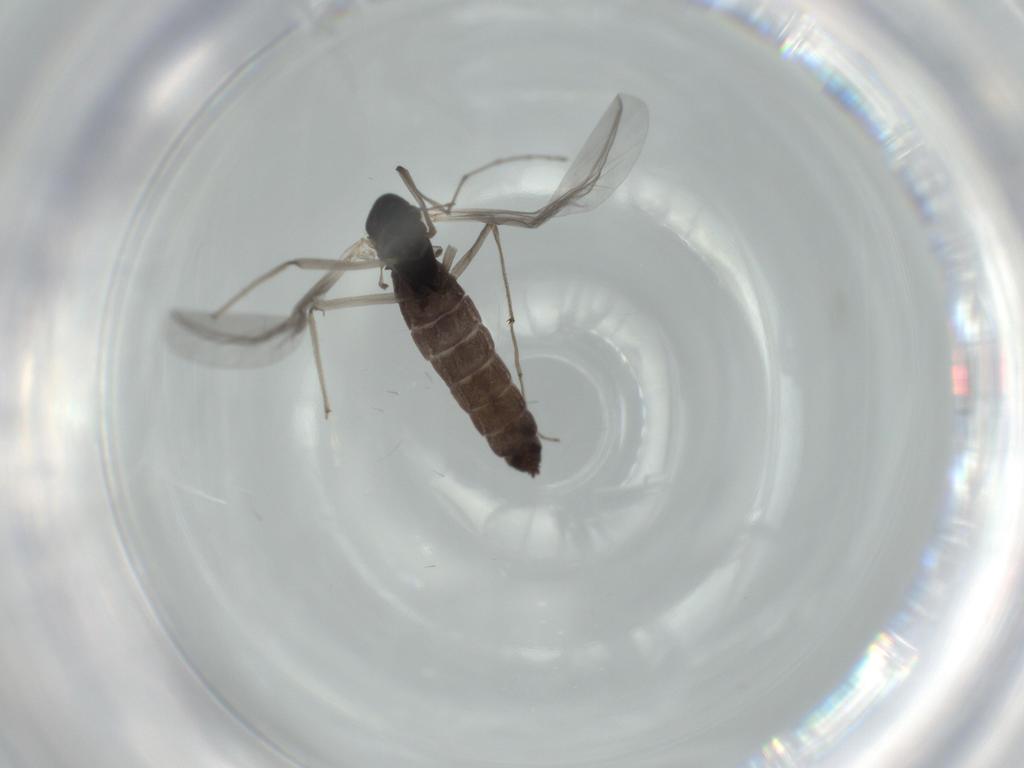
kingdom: Animalia
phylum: Arthropoda
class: Insecta
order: Diptera
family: Chironomidae
